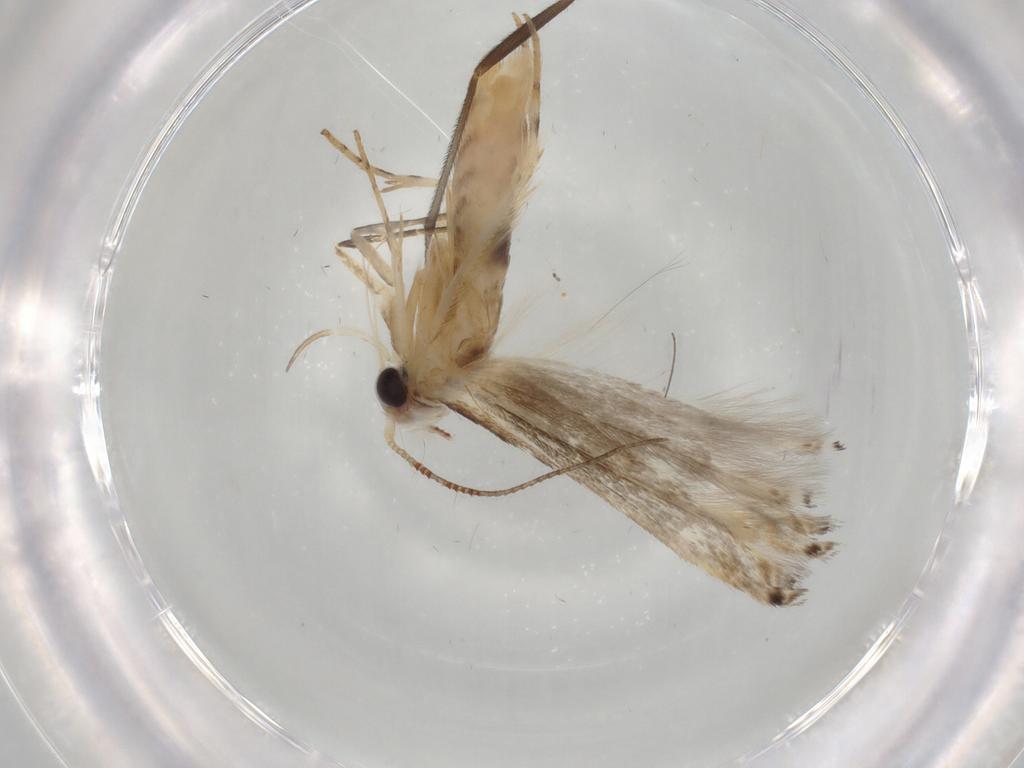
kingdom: Animalia
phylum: Arthropoda
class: Insecta
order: Lepidoptera
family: Gelechiidae
